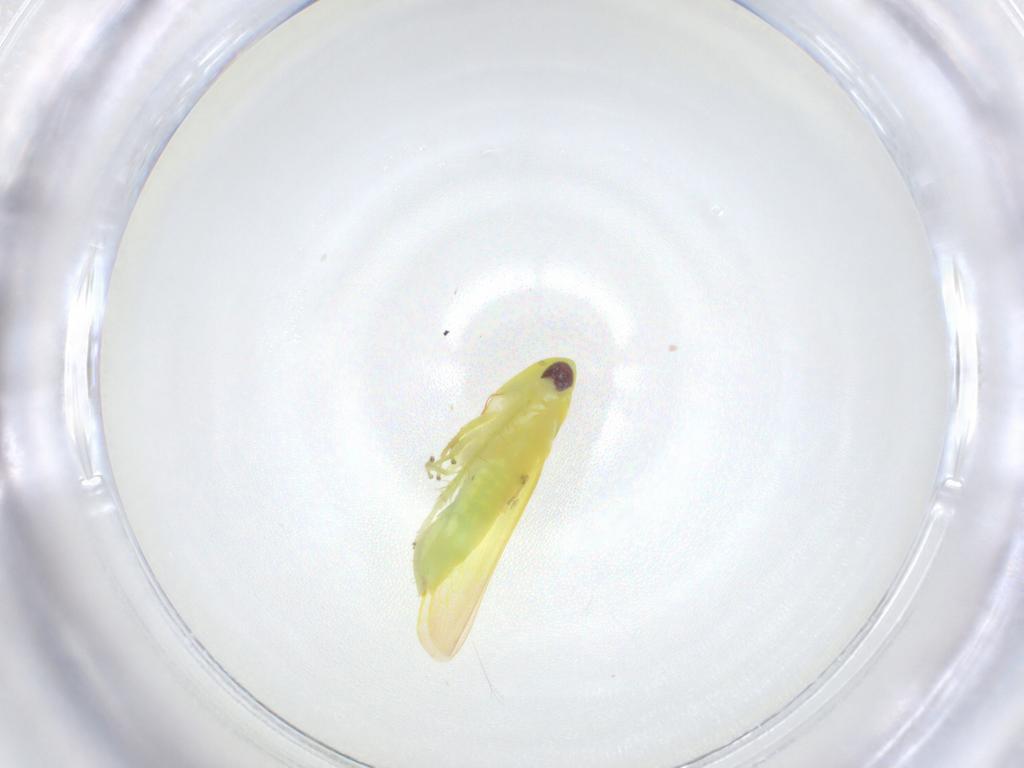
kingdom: Animalia
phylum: Arthropoda
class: Insecta
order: Hemiptera
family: Cicadellidae
